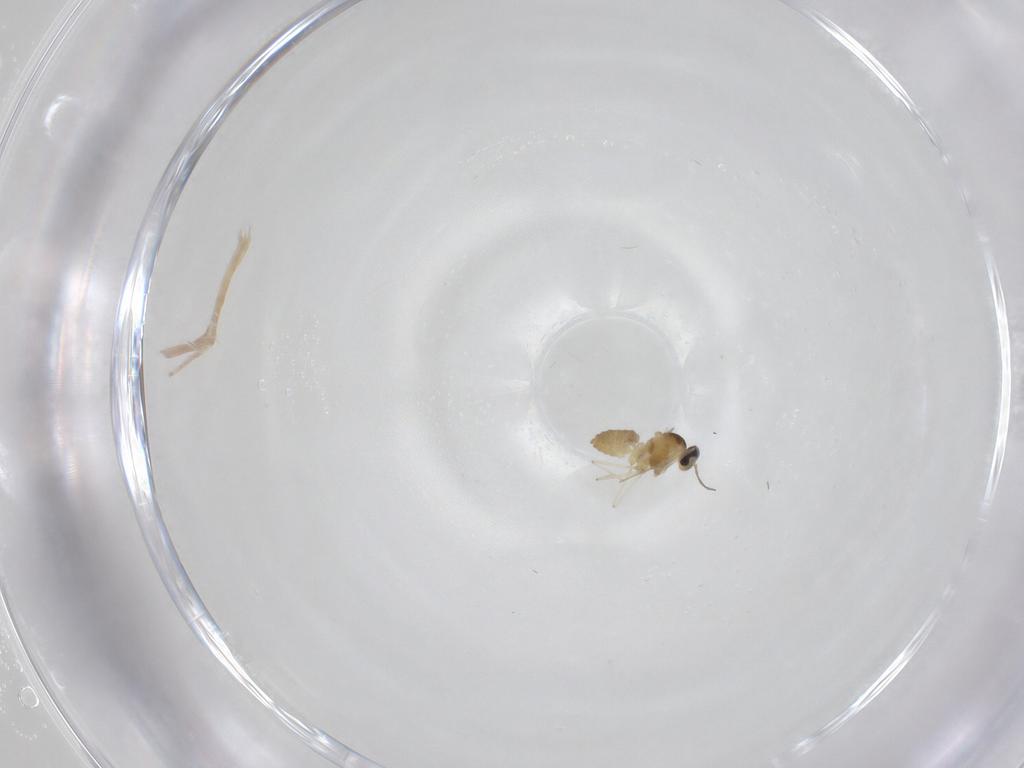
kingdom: Animalia
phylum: Arthropoda
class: Insecta
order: Diptera
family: Cecidomyiidae
